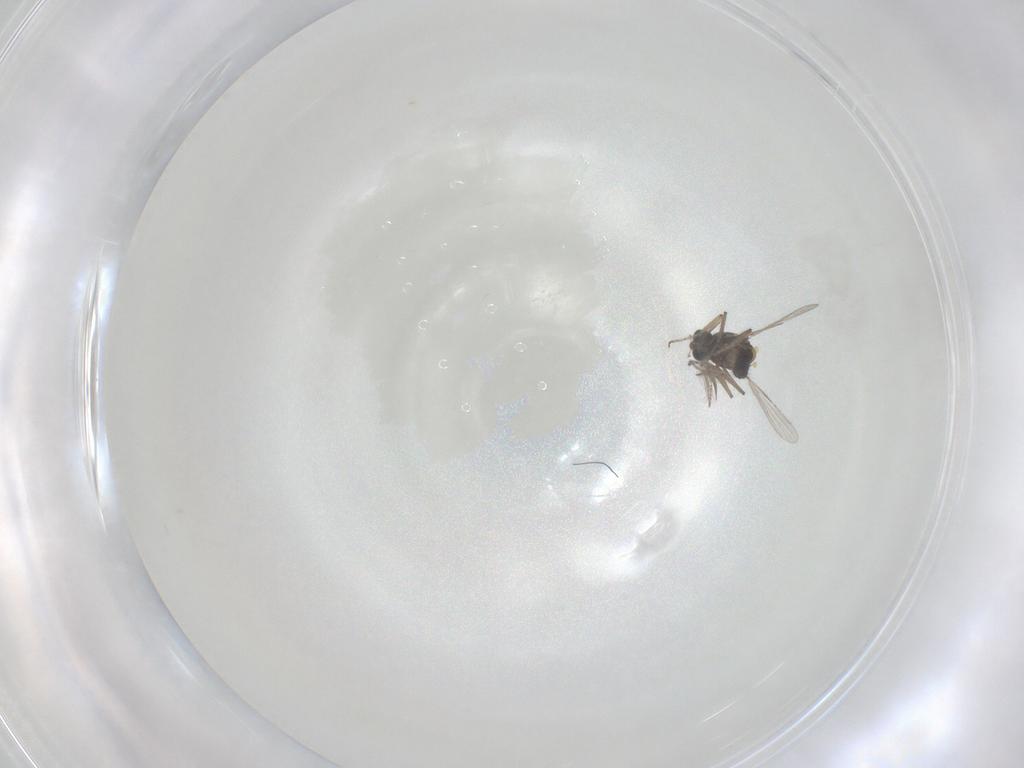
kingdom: Animalia
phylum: Arthropoda
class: Insecta
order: Diptera
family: Ceratopogonidae
